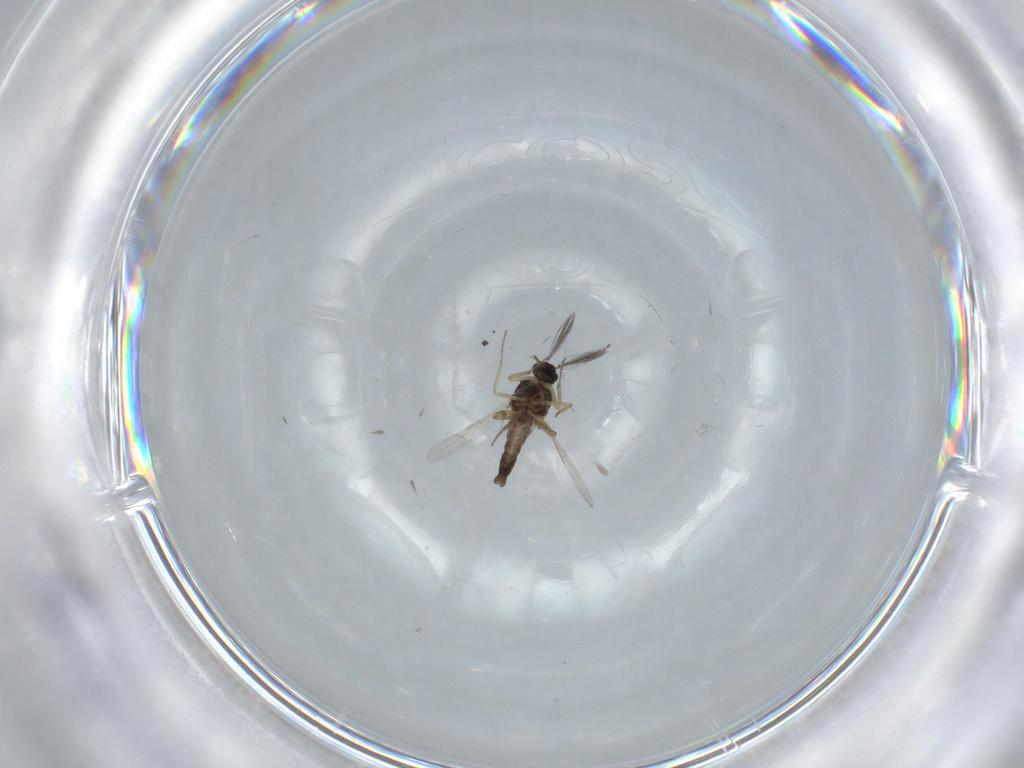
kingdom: Animalia
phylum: Arthropoda
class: Insecta
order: Diptera
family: Ceratopogonidae
